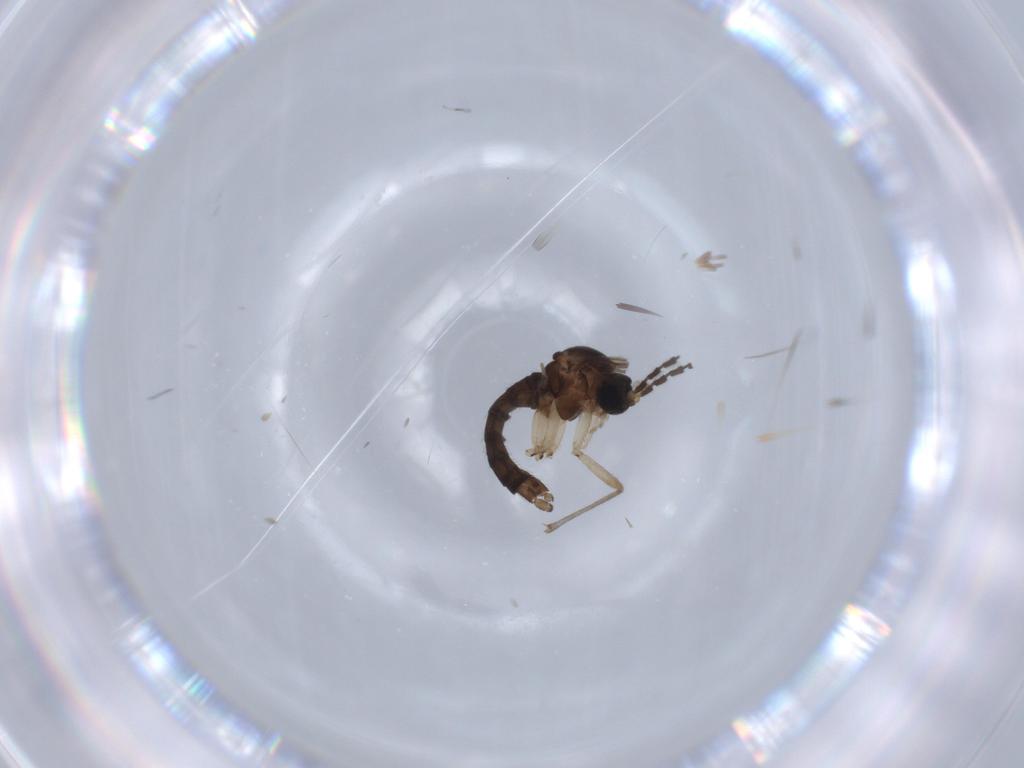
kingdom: Animalia
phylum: Arthropoda
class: Insecta
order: Diptera
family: Sciaridae
